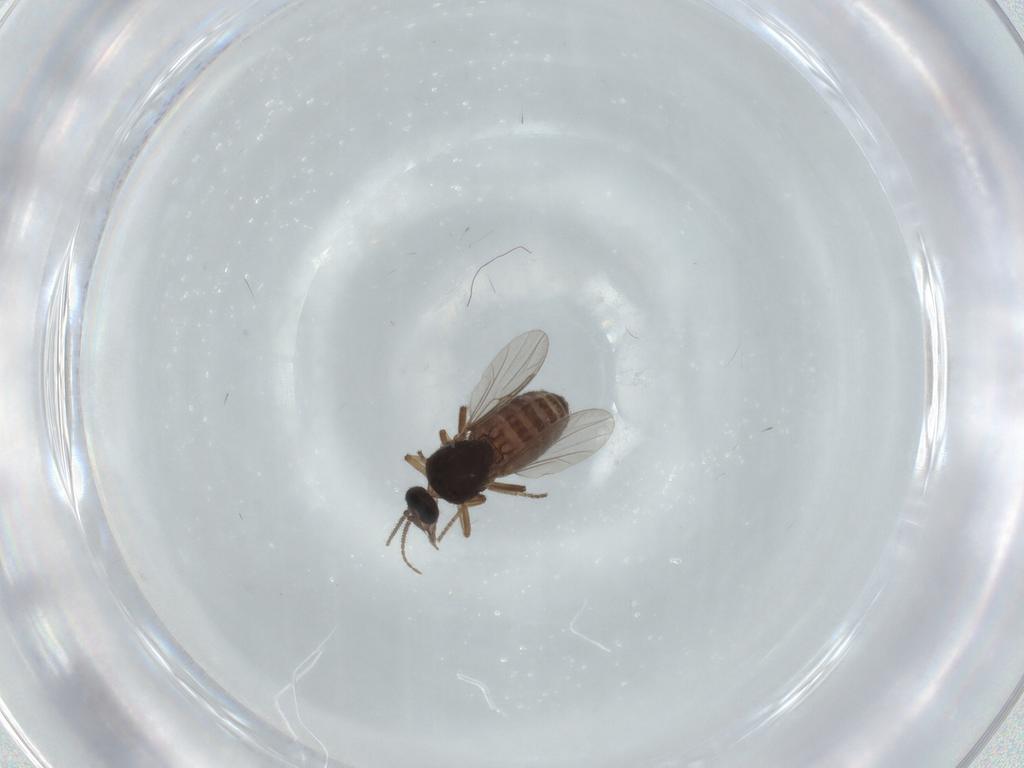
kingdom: Animalia
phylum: Arthropoda
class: Insecta
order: Diptera
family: Ceratopogonidae
